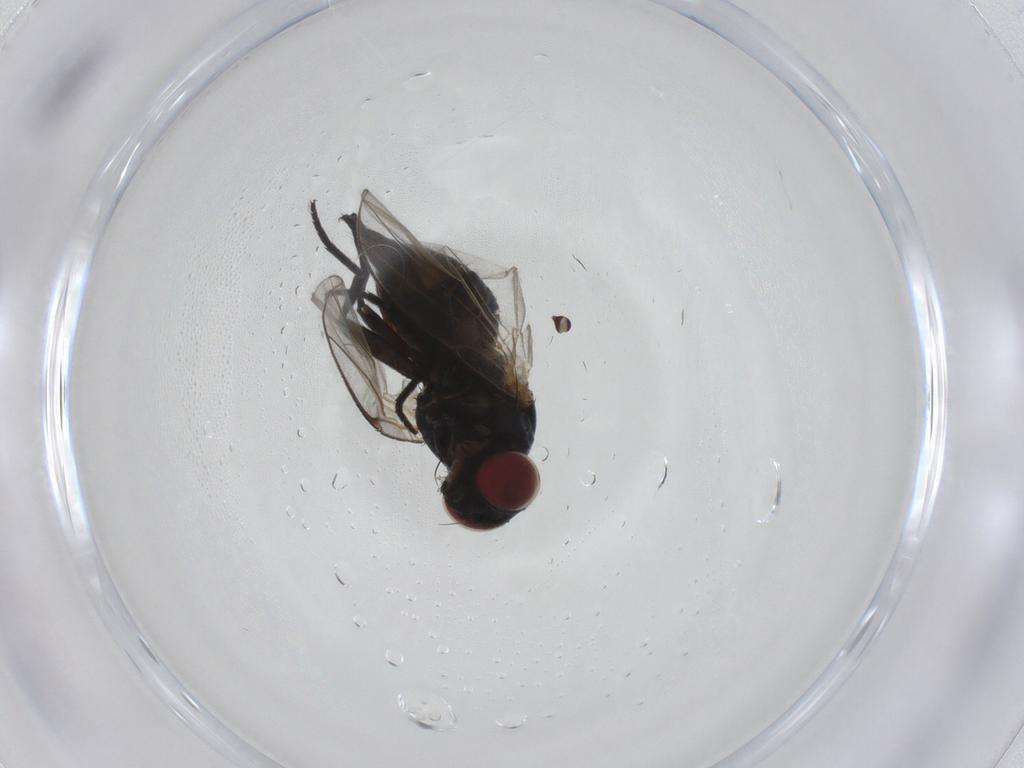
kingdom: Animalia
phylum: Arthropoda
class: Insecta
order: Diptera
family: Agromyzidae
